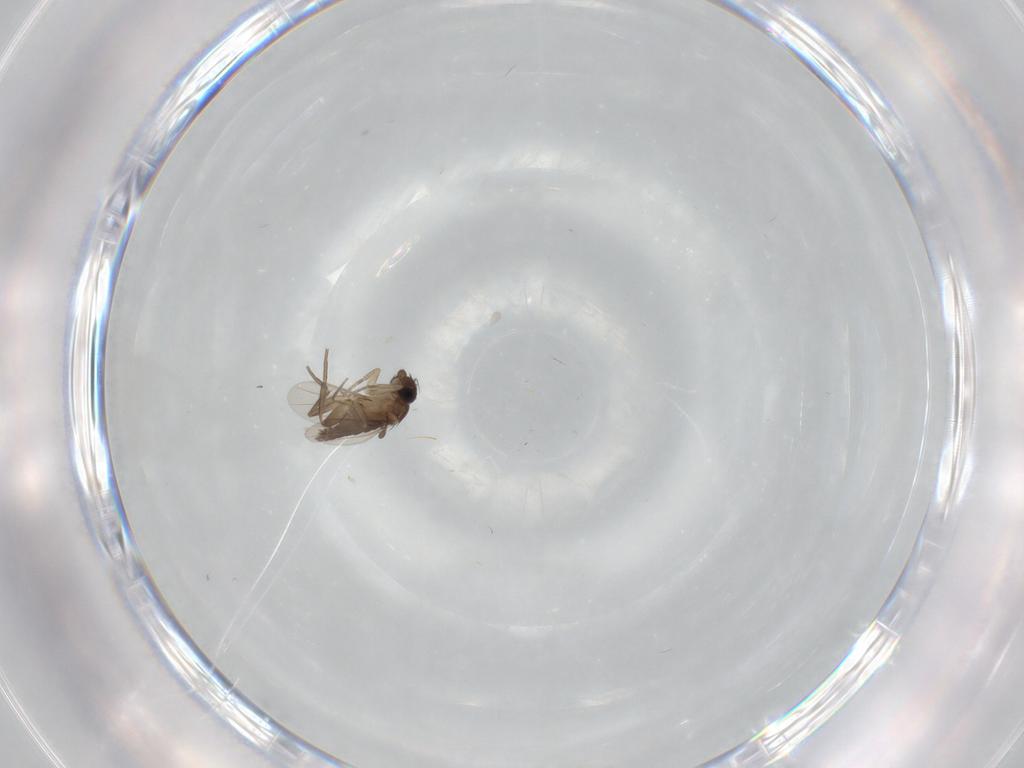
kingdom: Animalia
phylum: Arthropoda
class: Insecta
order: Diptera
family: Phoridae
